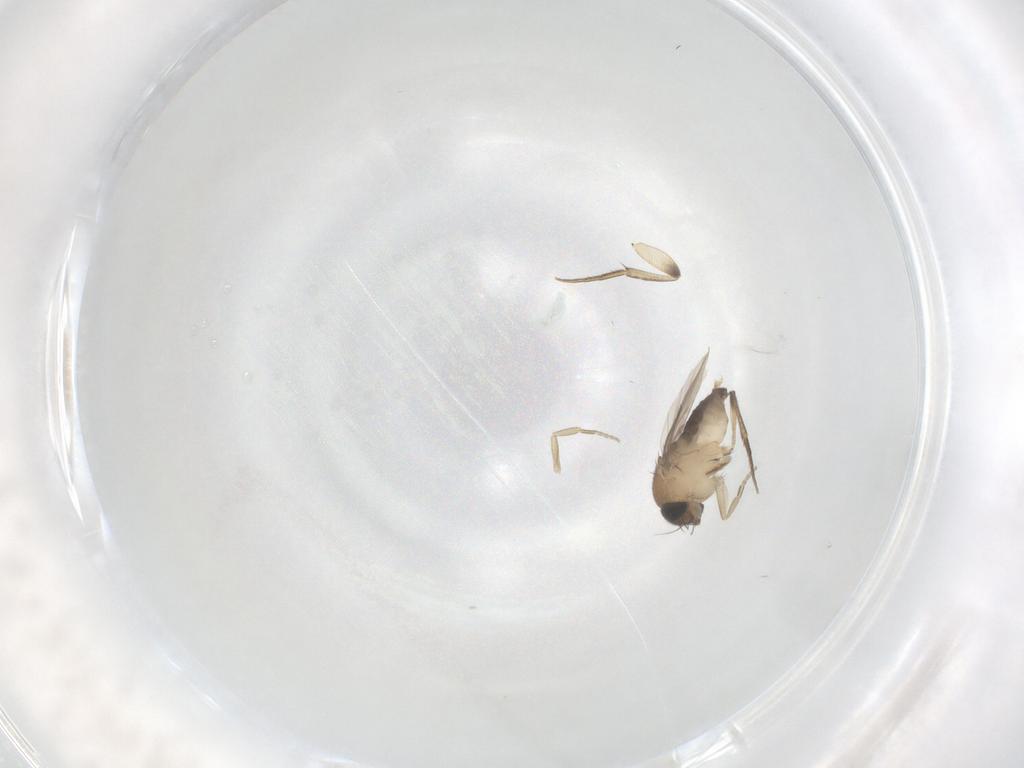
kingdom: Animalia
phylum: Arthropoda
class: Insecta
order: Diptera
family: Phoridae
